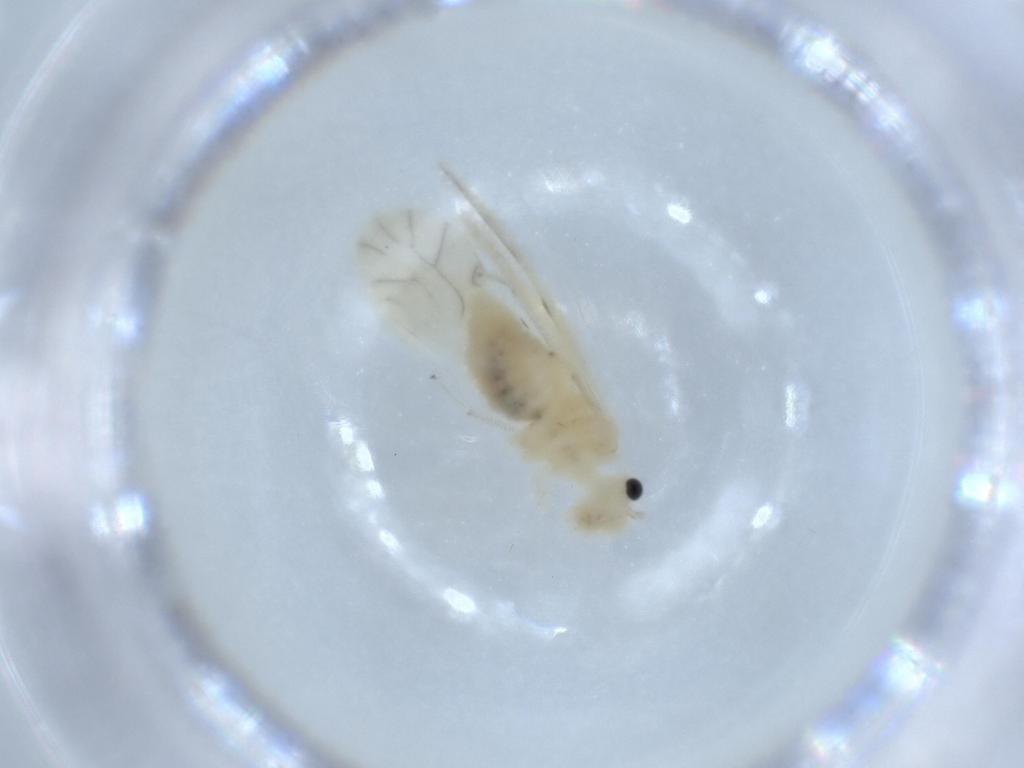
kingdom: Animalia
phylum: Arthropoda
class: Insecta
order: Psocodea
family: Caeciliusidae
